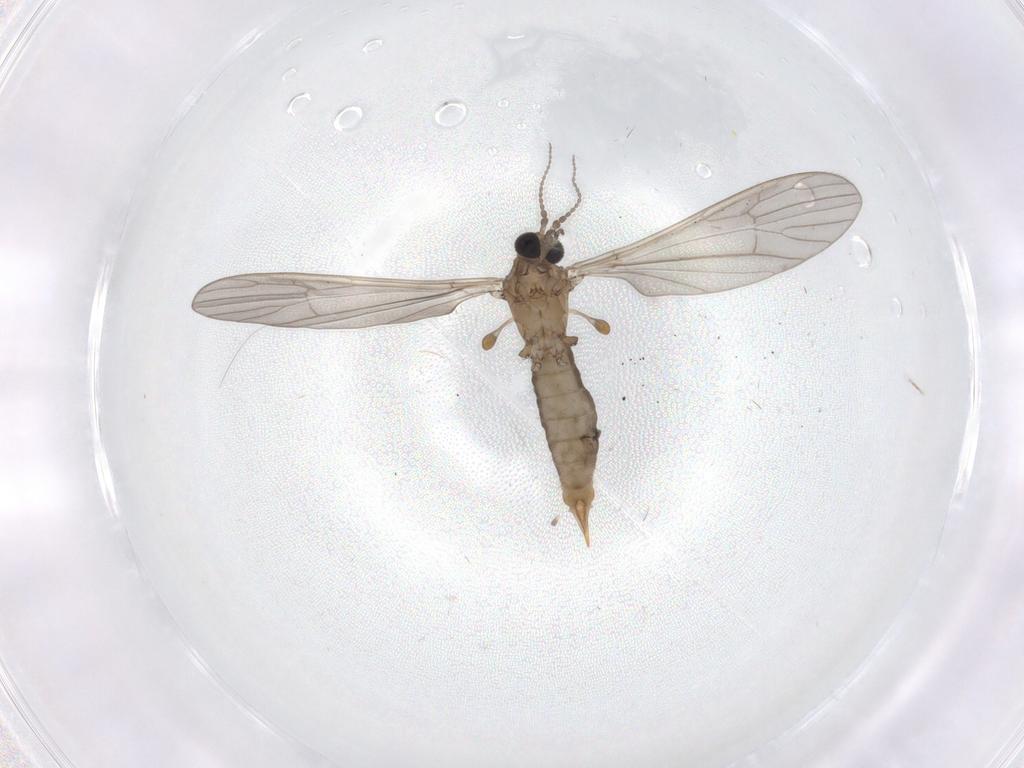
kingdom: Animalia
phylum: Arthropoda
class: Insecta
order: Diptera
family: Limoniidae
